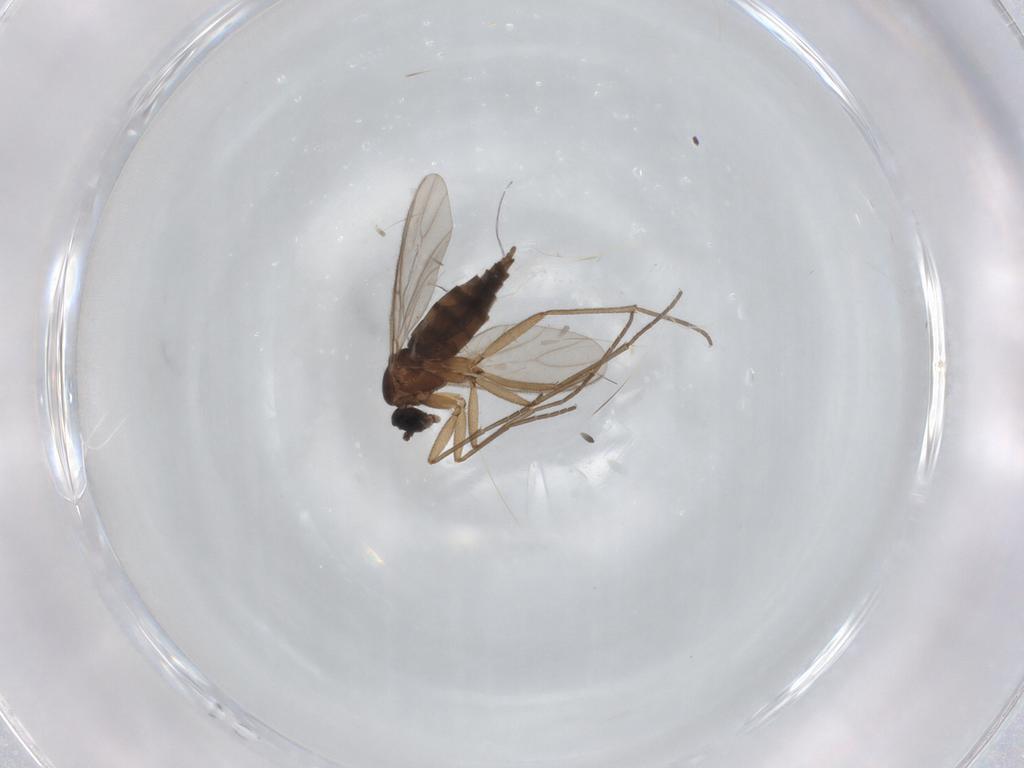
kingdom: Animalia
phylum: Arthropoda
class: Insecta
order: Diptera
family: Sciaridae
